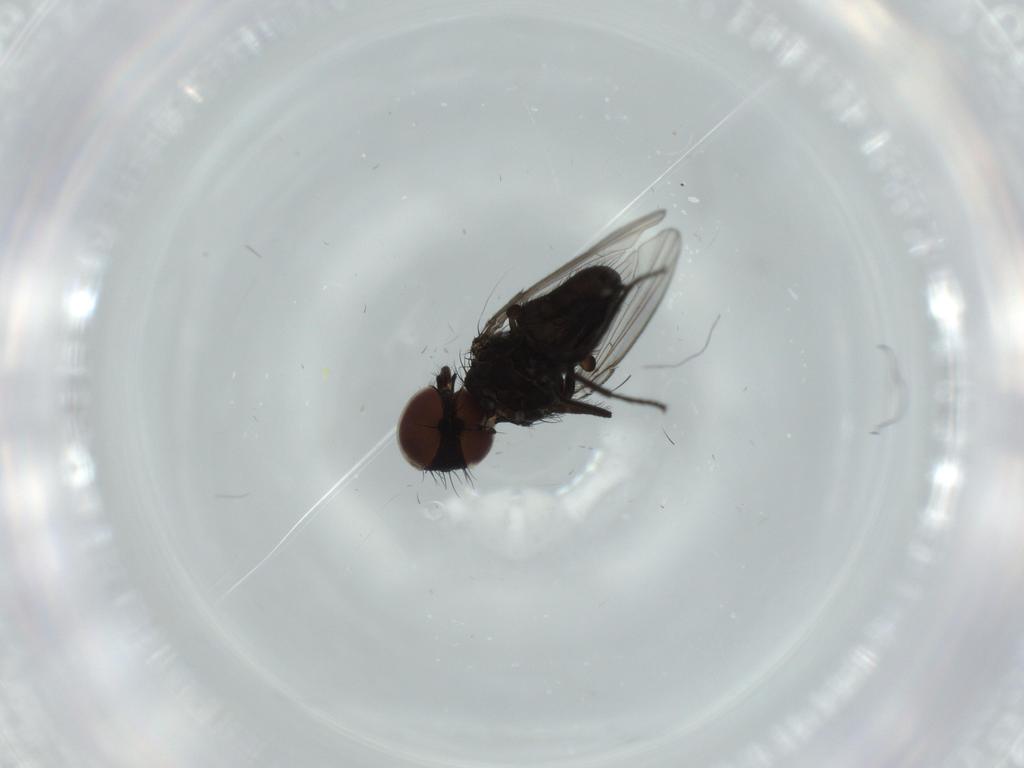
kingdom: Animalia
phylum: Arthropoda
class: Insecta
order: Diptera
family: Milichiidae
